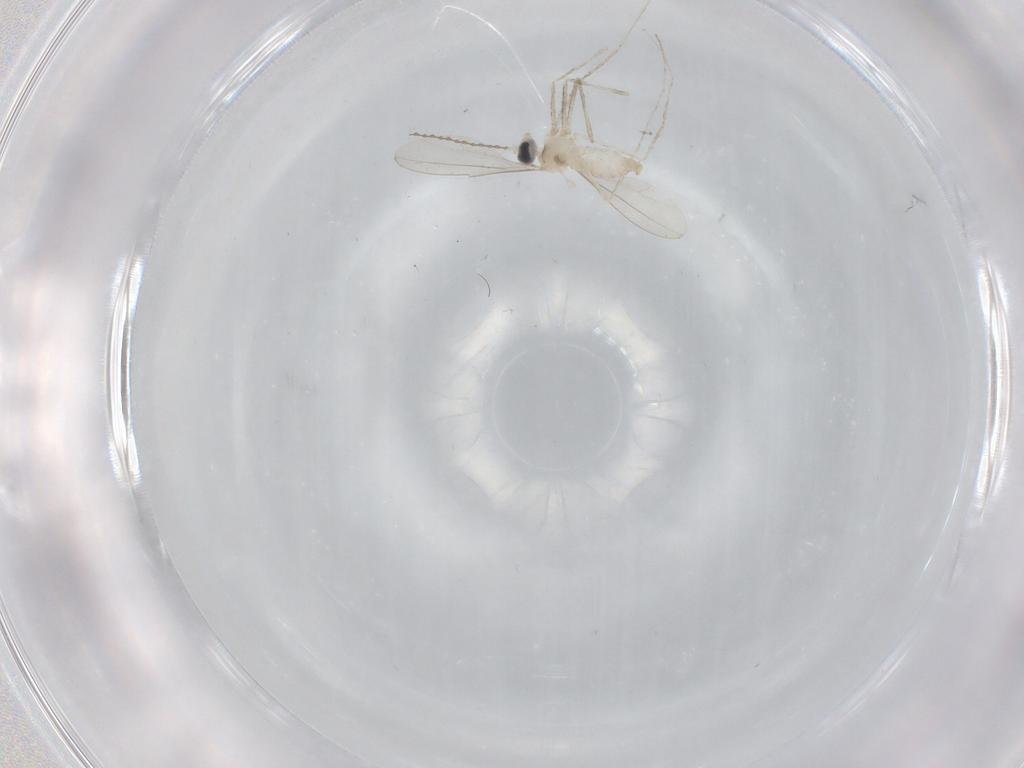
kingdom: Animalia
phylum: Arthropoda
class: Insecta
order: Diptera
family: Cecidomyiidae
